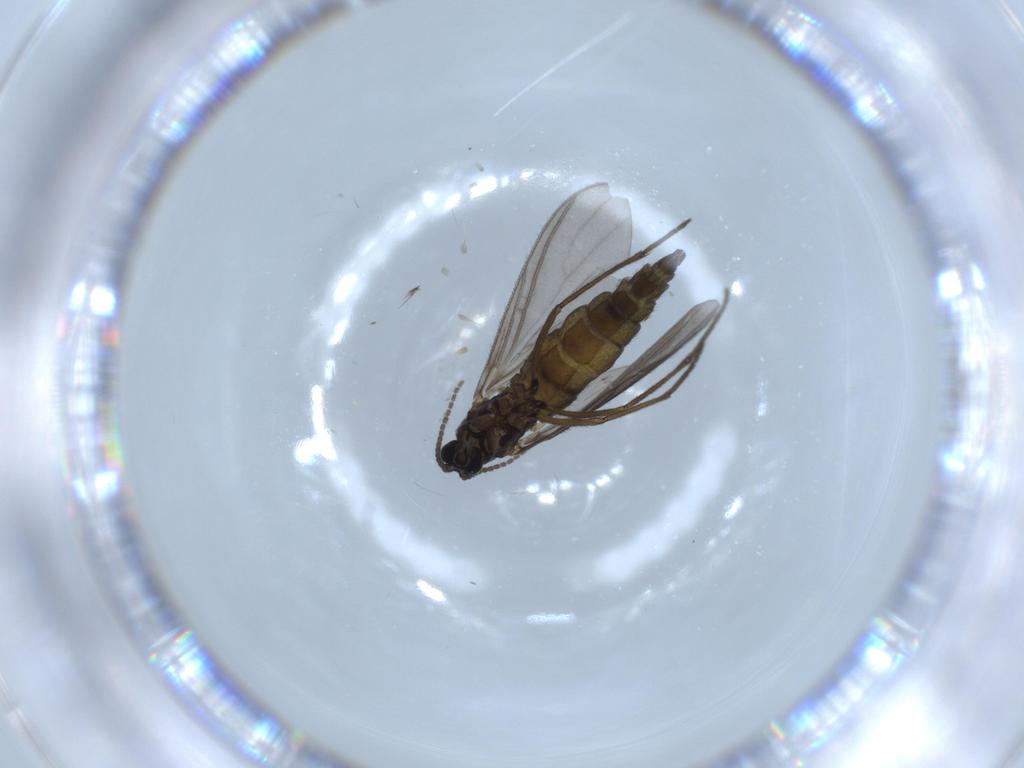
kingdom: Animalia
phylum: Arthropoda
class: Insecta
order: Diptera
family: Sciaridae
